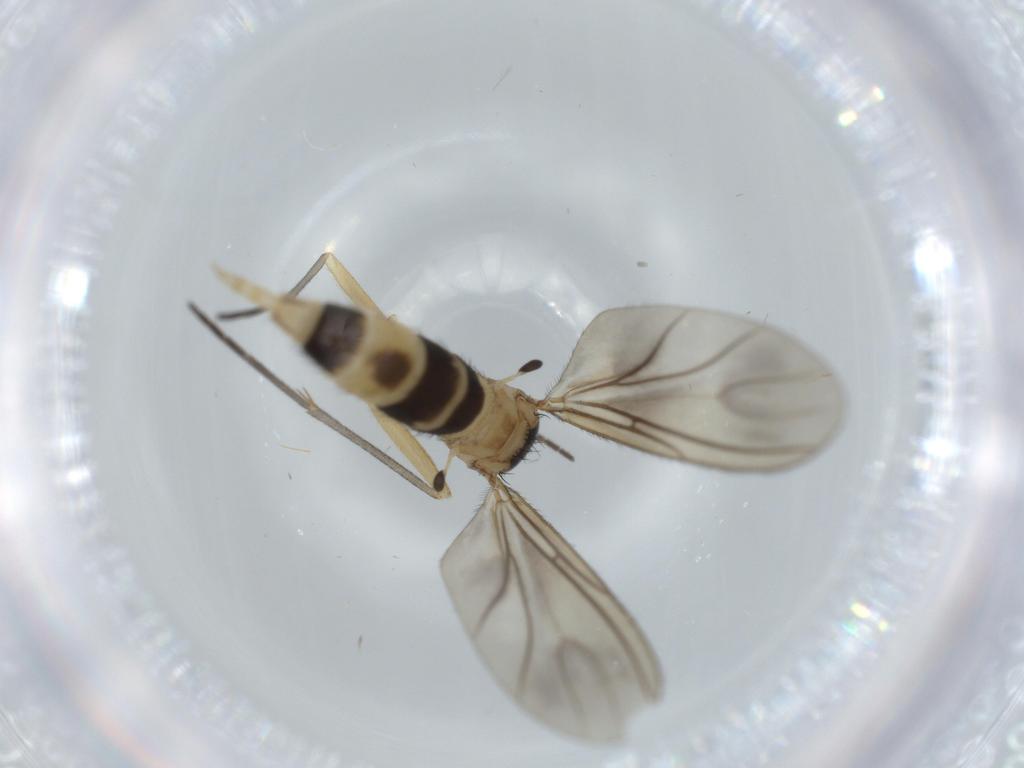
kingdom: Animalia
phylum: Arthropoda
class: Insecta
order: Diptera
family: Sciaridae
